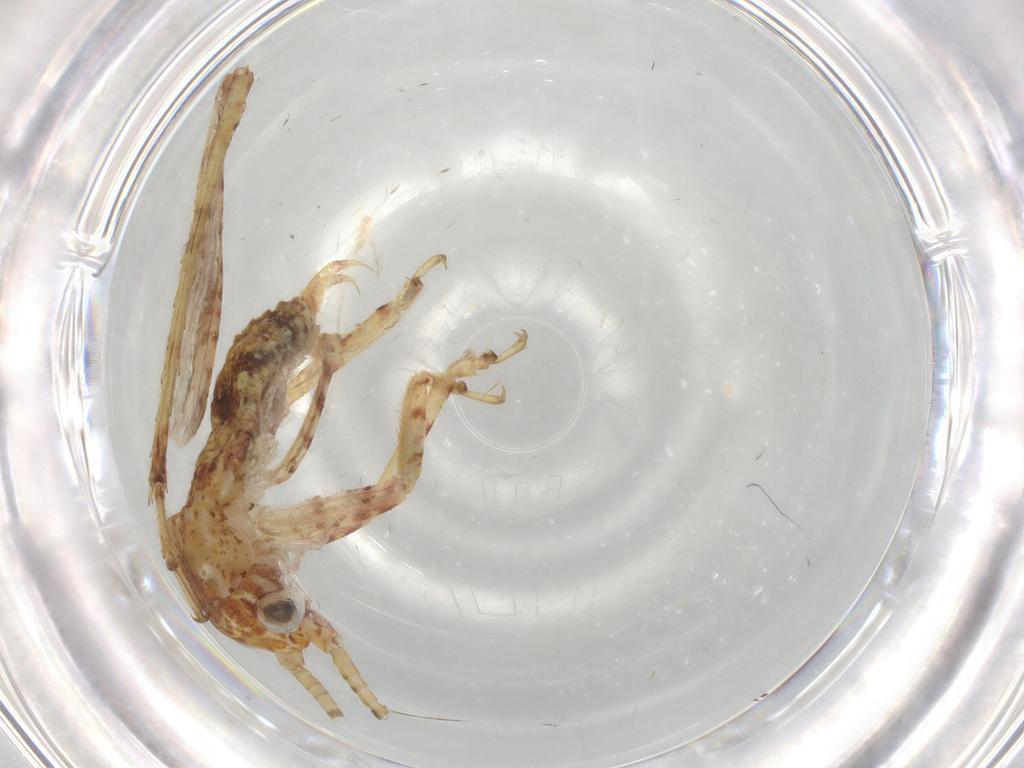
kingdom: Animalia
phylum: Arthropoda
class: Insecta
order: Orthoptera
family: Gryllidae
